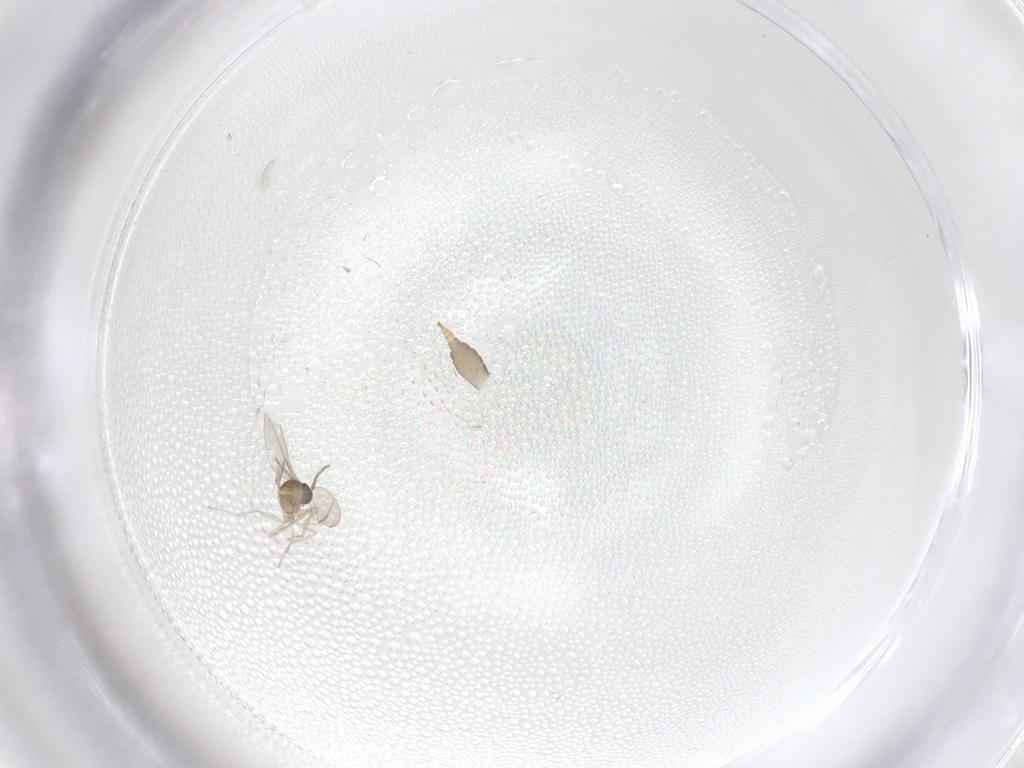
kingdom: Animalia
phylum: Arthropoda
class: Insecta
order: Diptera
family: Cecidomyiidae
